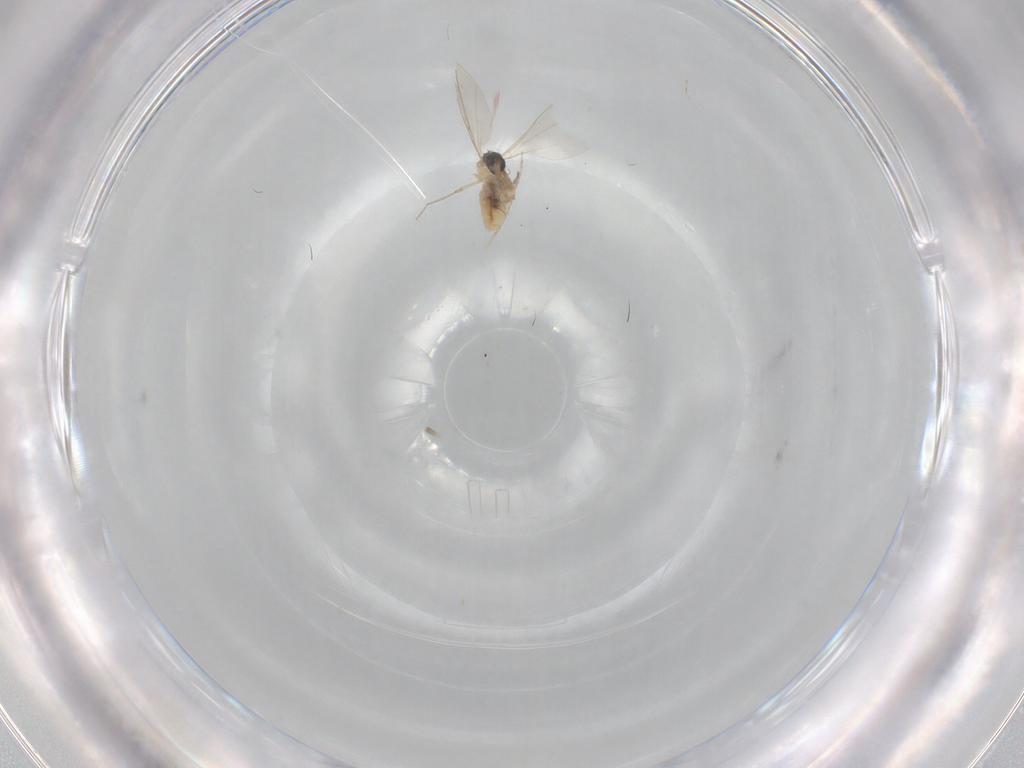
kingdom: Animalia
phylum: Arthropoda
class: Insecta
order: Diptera
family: Cecidomyiidae
